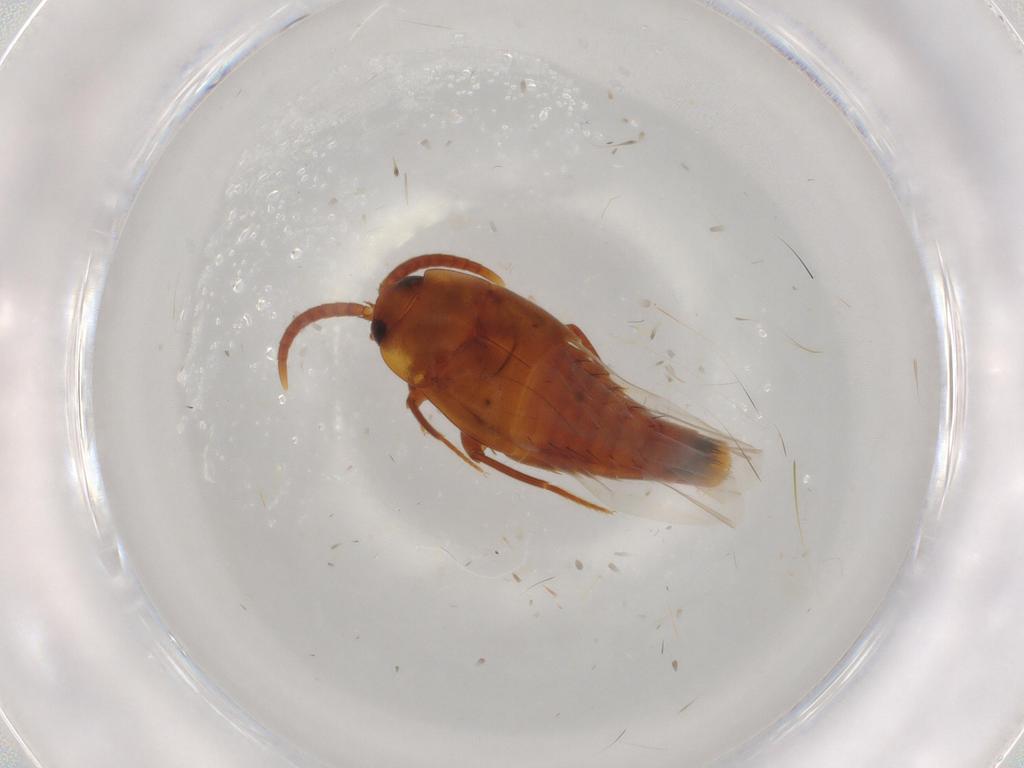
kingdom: Animalia
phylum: Arthropoda
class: Insecta
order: Coleoptera
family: Staphylinidae
